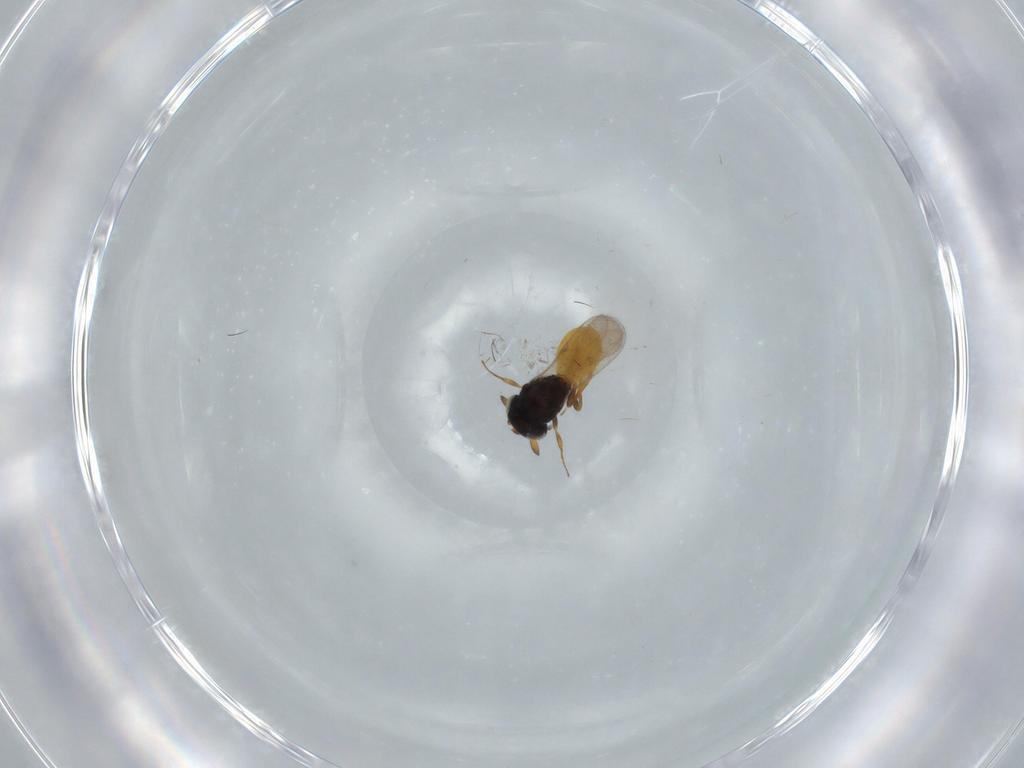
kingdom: Animalia
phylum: Arthropoda
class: Insecta
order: Hymenoptera
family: Scelionidae
